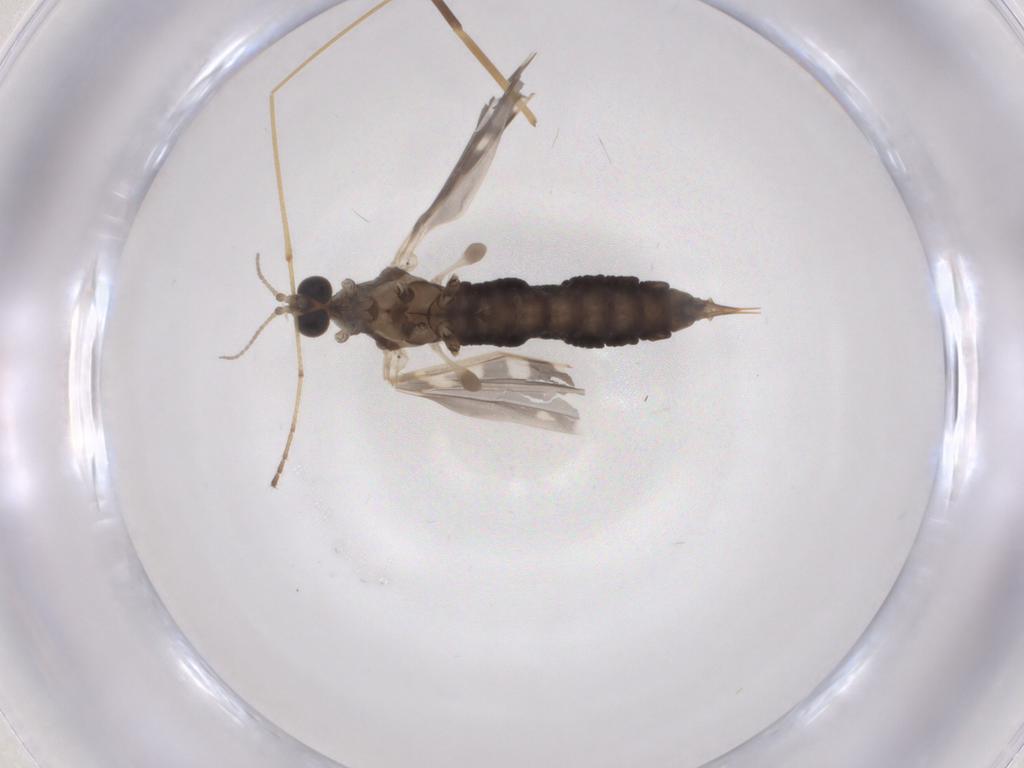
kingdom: Animalia
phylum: Arthropoda
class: Insecta
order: Diptera
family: Limoniidae
